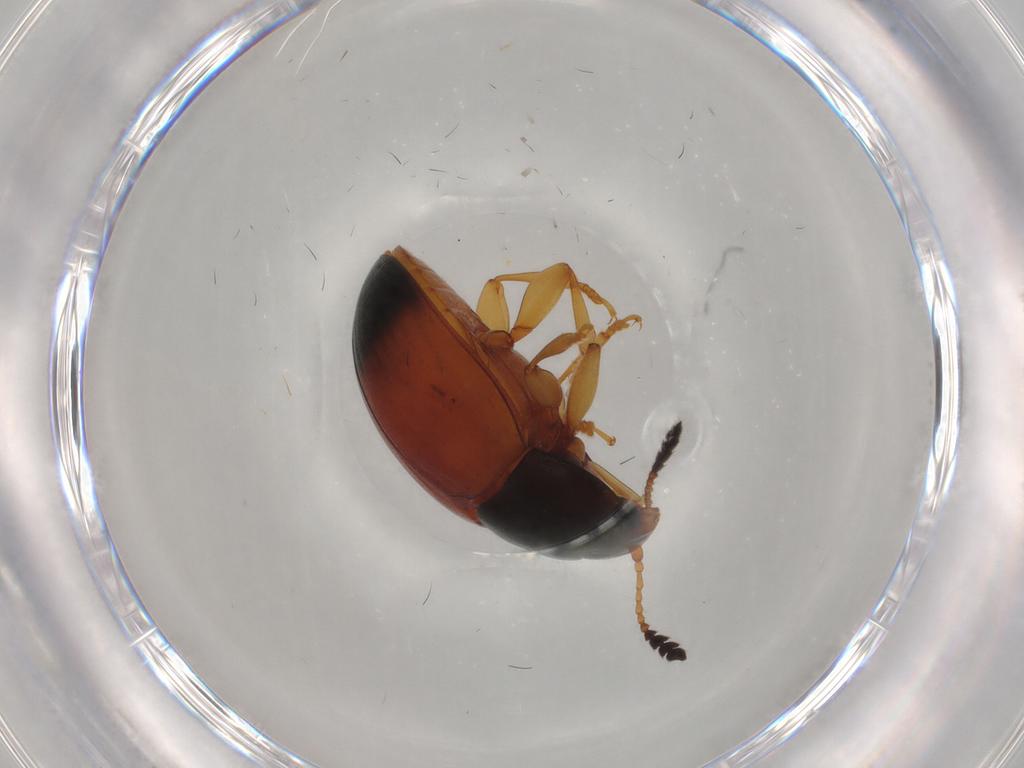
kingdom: Animalia
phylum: Arthropoda
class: Insecta
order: Coleoptera
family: Erotylidae
